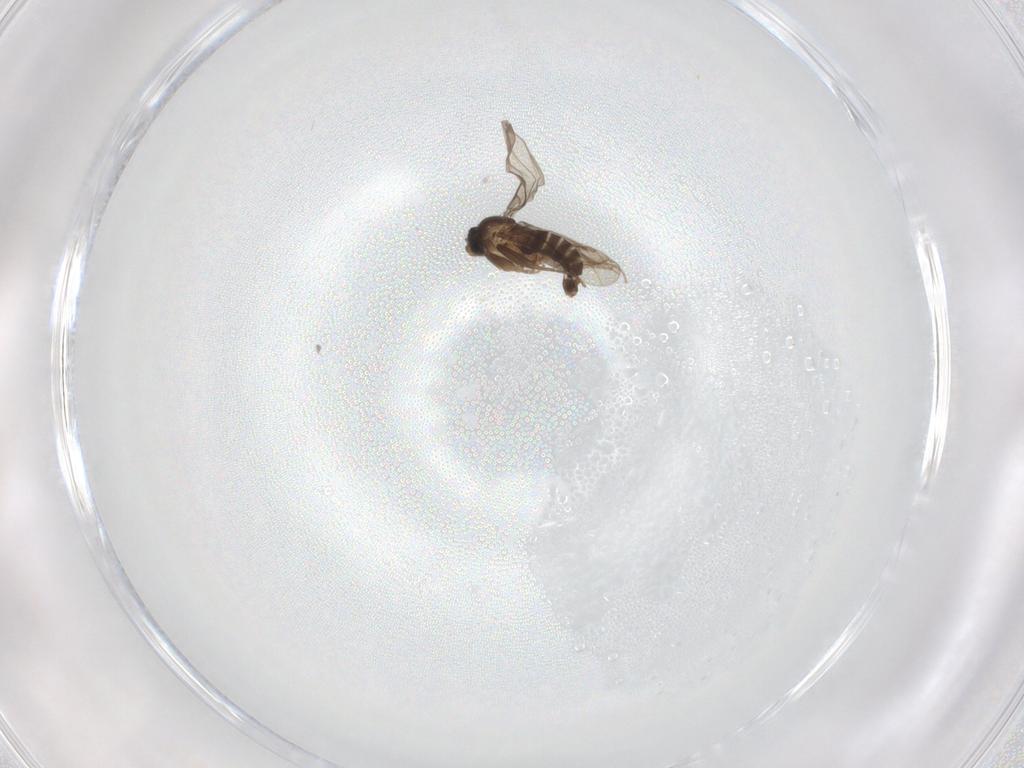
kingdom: Animalia
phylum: Arthropoda
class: Insecta
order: Diptera
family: Phoridae
